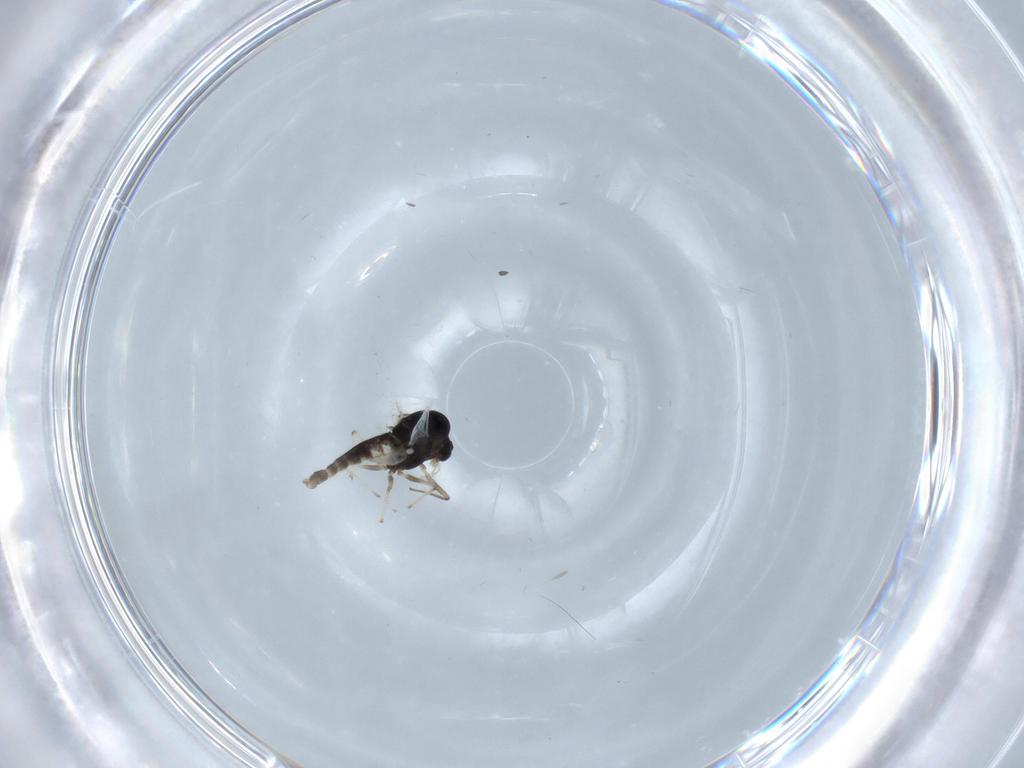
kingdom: Animalia
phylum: Arthropoda
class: Insecta
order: Diptera
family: Chironomidae
